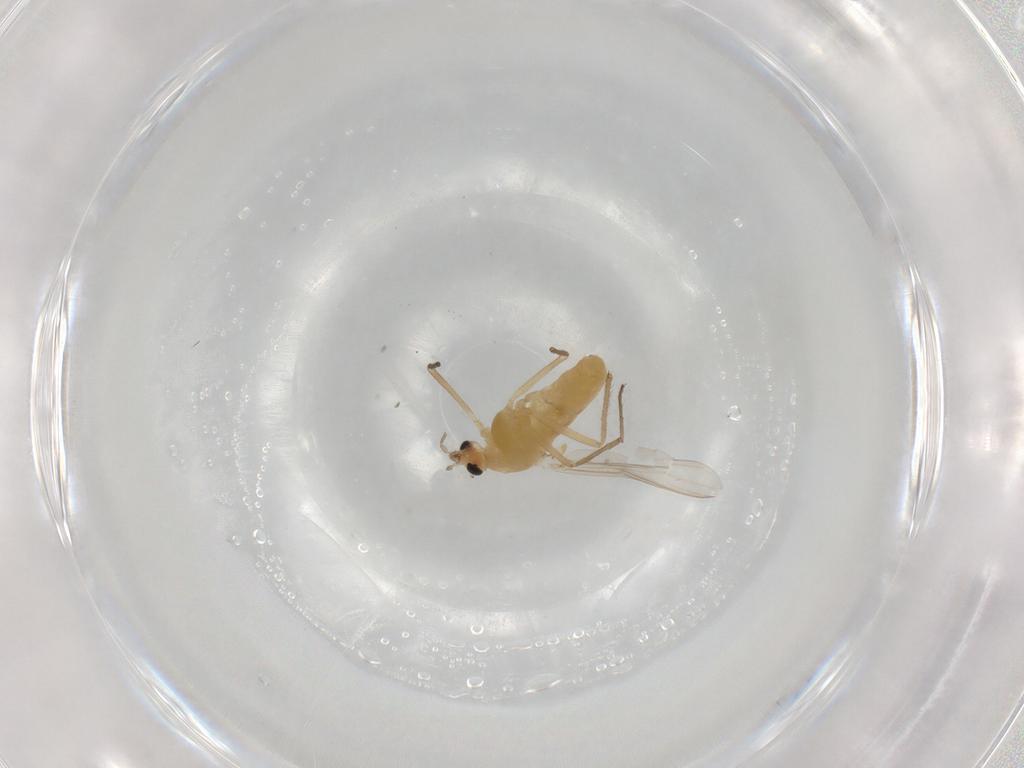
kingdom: Animalia
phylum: Arthropoda
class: Insecta
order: Diptera
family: Chironomidae
